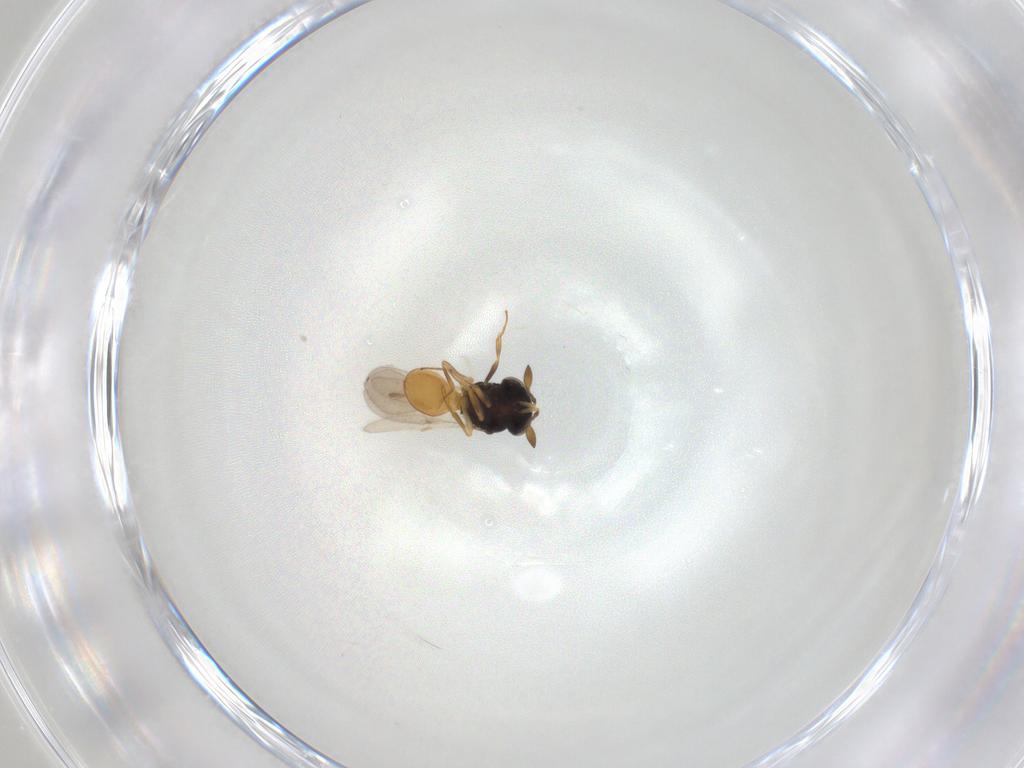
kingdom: Animalia
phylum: Arthropoda
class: Insecta
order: Hymenoptera
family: Scelionidae
